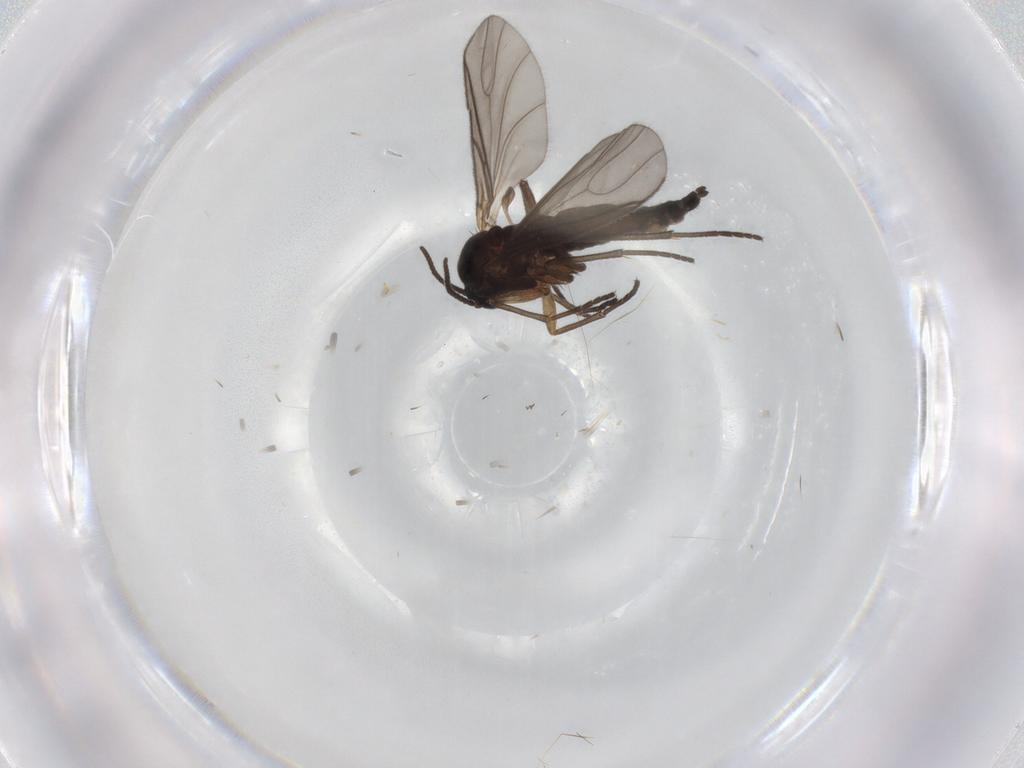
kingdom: Animalia
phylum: Arthropoda
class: Insecta
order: Diptera
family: Sciaridae
